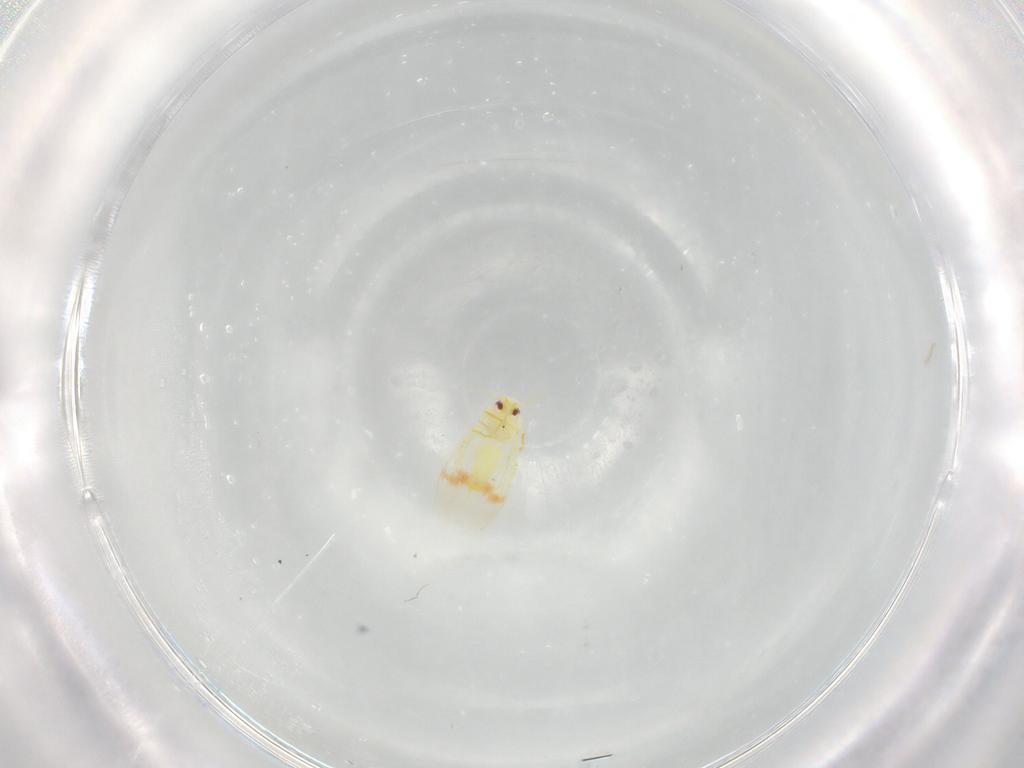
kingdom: Animalia
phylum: Arthropoda
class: Insecta
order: Hemiptera
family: Aleyrodidae
